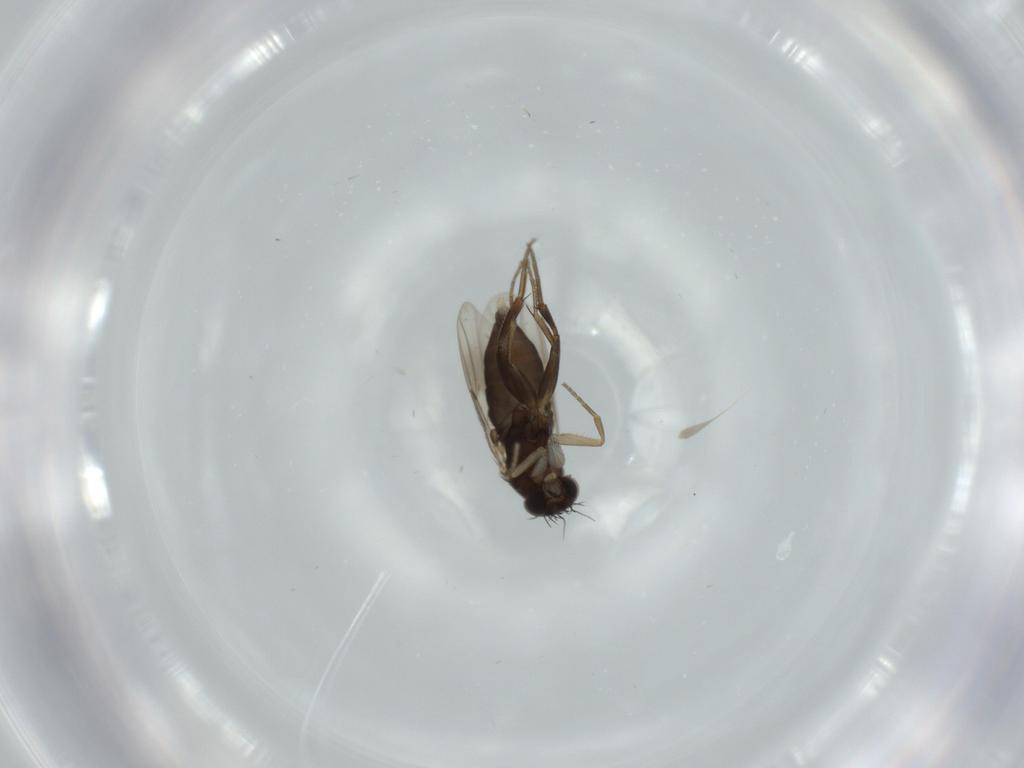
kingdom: Animalia
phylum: Arthropoda
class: Insecta
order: Diptera
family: Phoridae
